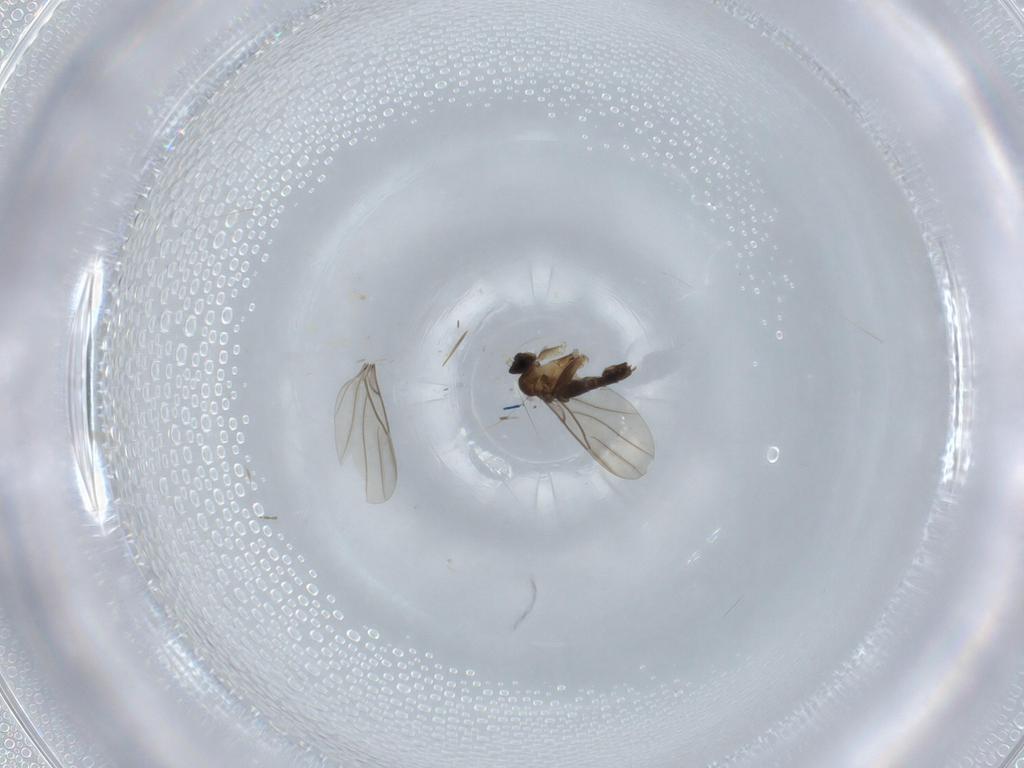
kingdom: Animalia
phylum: Arthropoda
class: Insecta
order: Diptera
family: Phoridae
